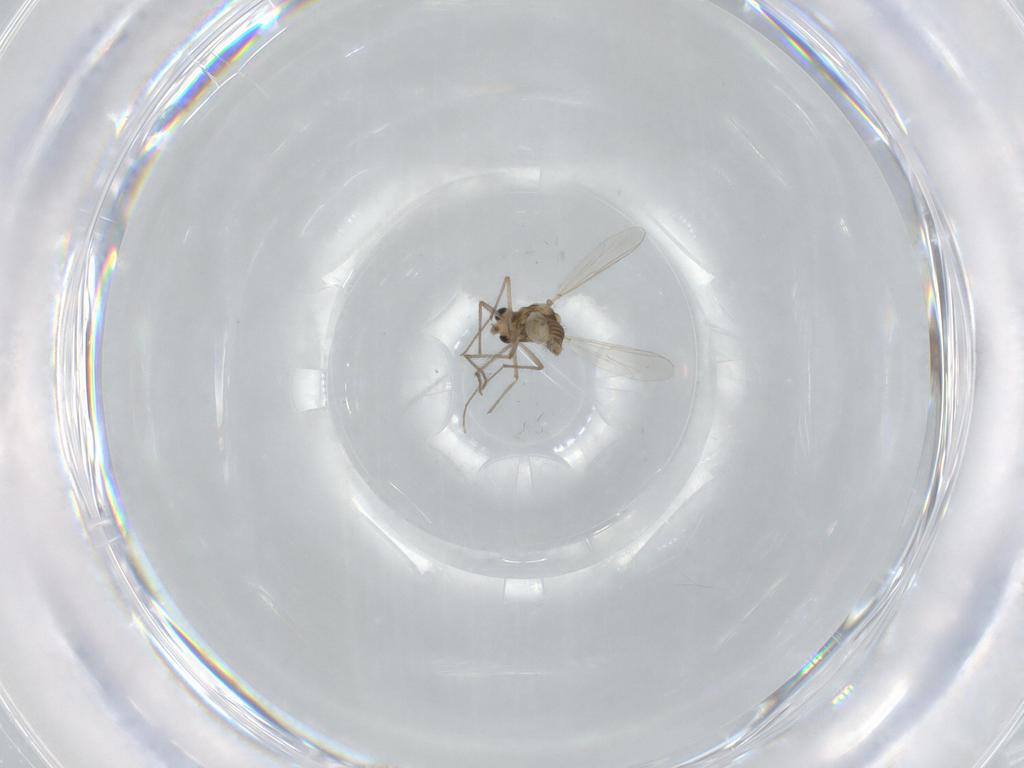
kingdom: Animalia
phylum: Arthropoda
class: Insecta
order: Diptera
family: Chironomidae
